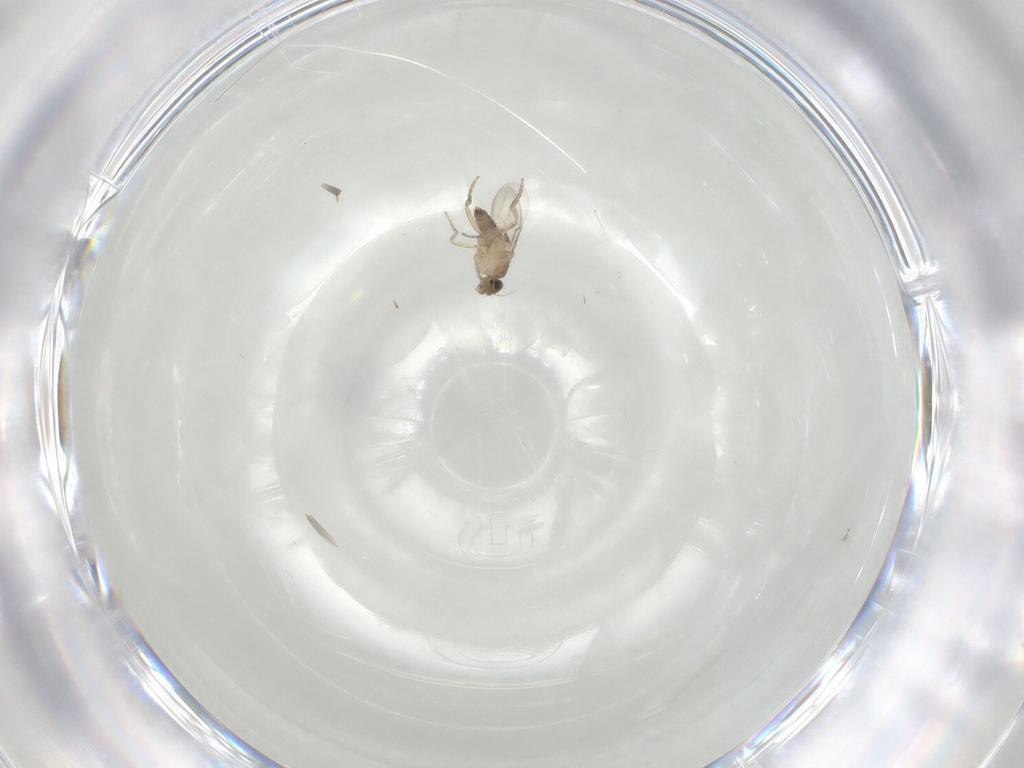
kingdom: Animalia
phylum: Arthropoda
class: Insecta
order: Diptera
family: Cecidomyiidae
